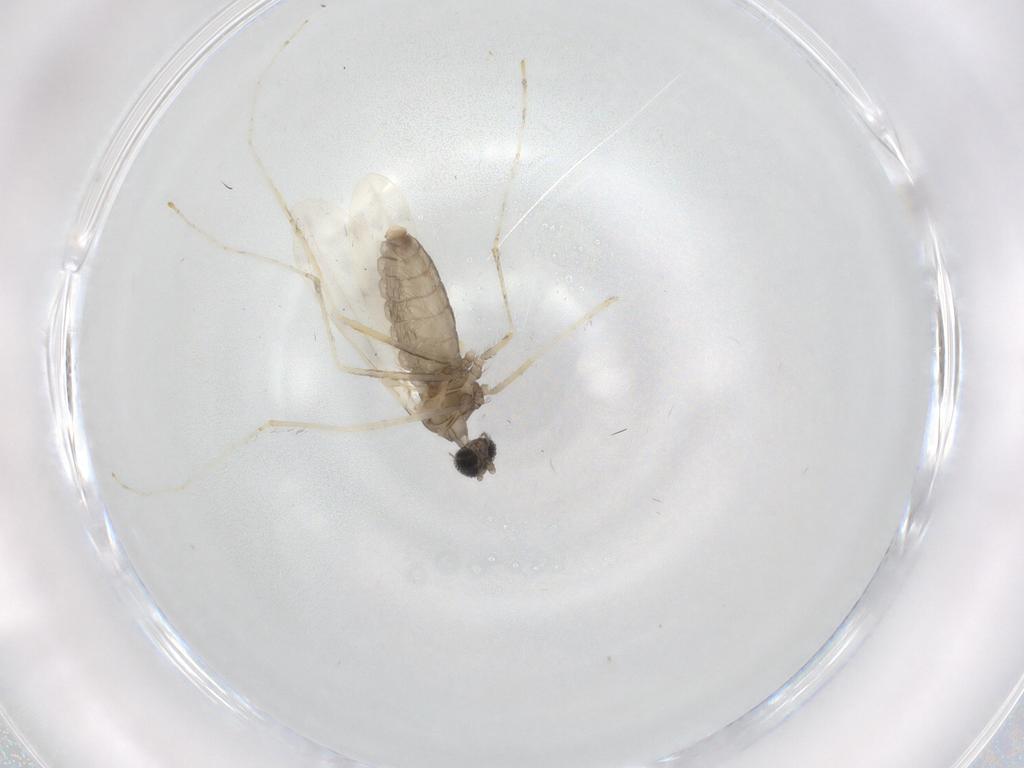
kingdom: Animalia
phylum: Arthropoda
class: Insecta
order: Diptera
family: Cecidomyiidae
